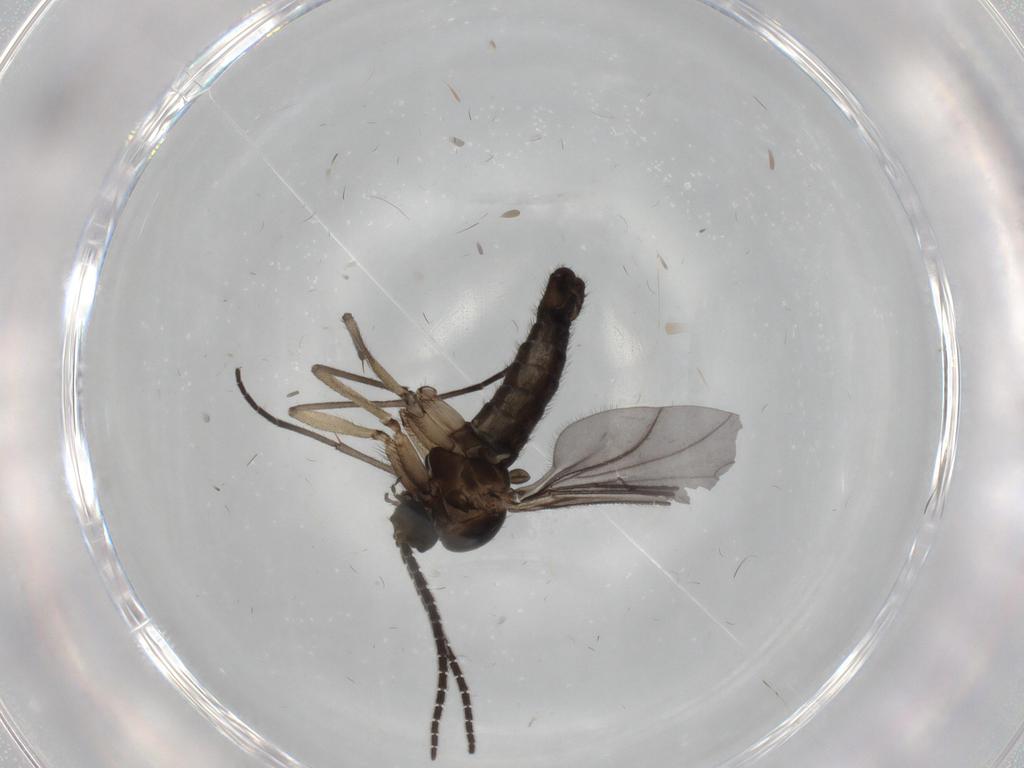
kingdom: Animalia
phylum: Arthropoda
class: Insecta
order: Diptera
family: Sciaridae
